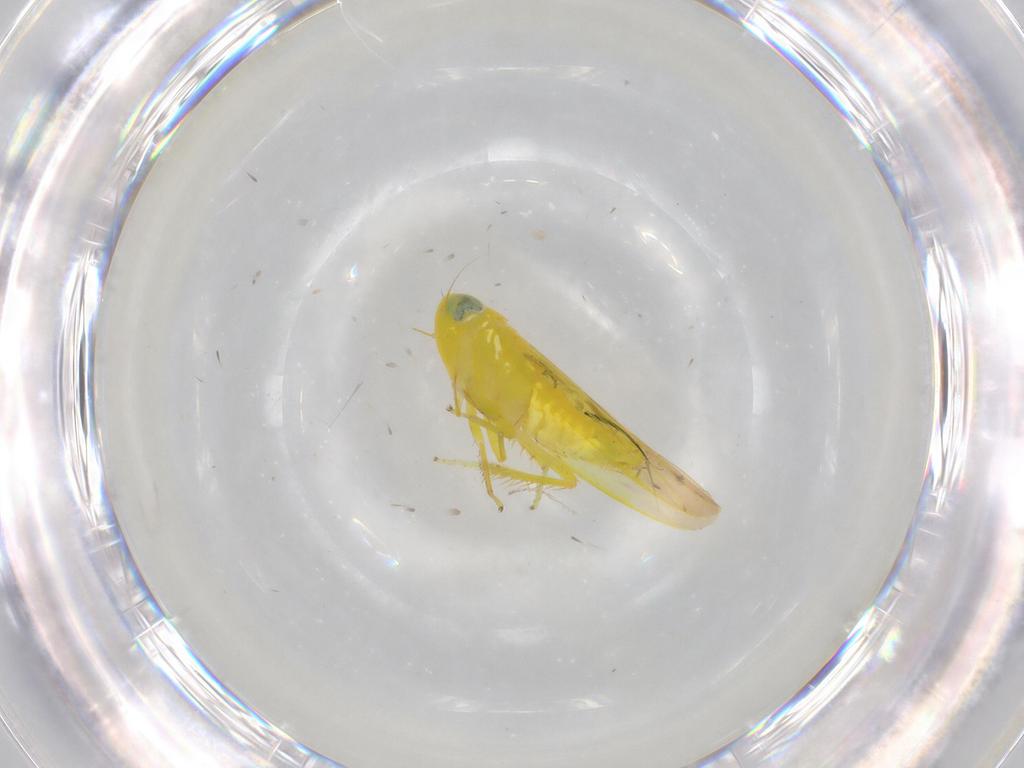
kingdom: Animalia
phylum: Arthropoda
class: Insecta
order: Hemiptera
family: Cicadellidae
